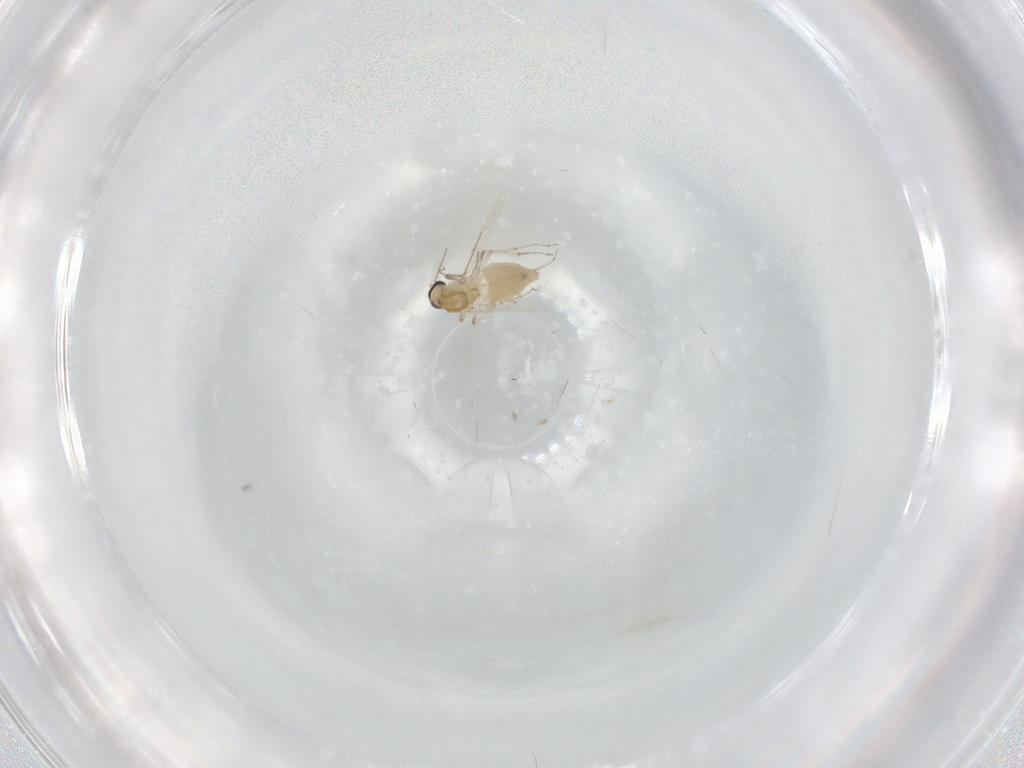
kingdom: Animalia
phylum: Arthropoda
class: Insecta
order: Diptera
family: Ceratopogonidae
